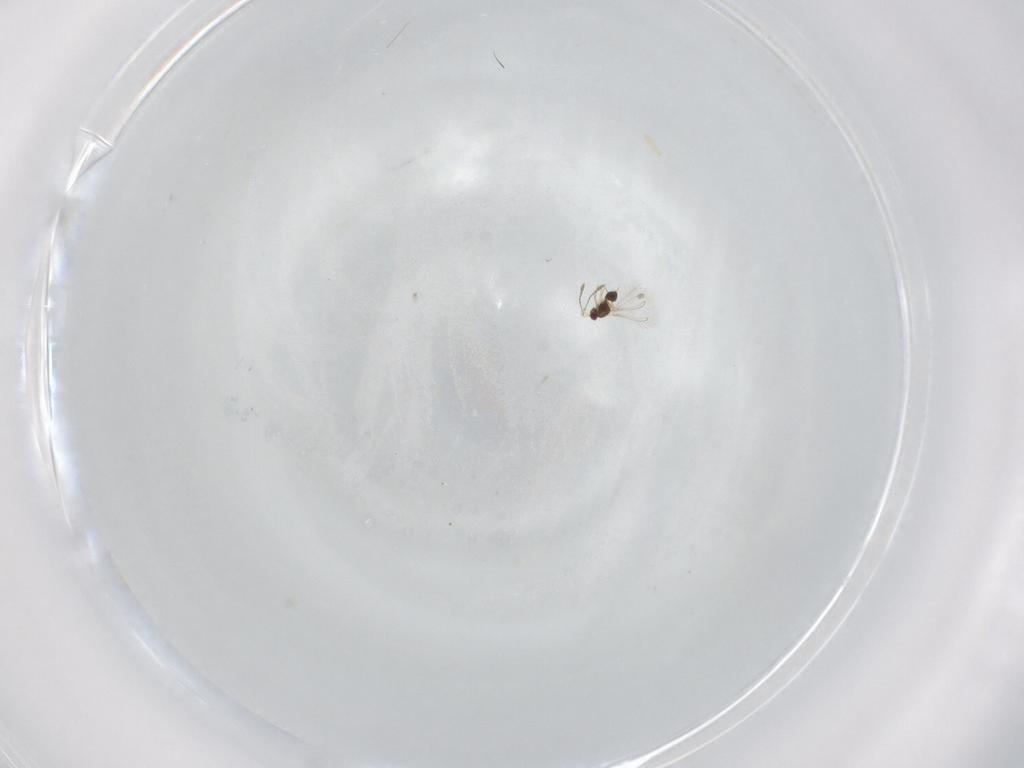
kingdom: Animalia
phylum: Arthropoda
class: Insecta
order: Hymenoptera
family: Mymaridae
